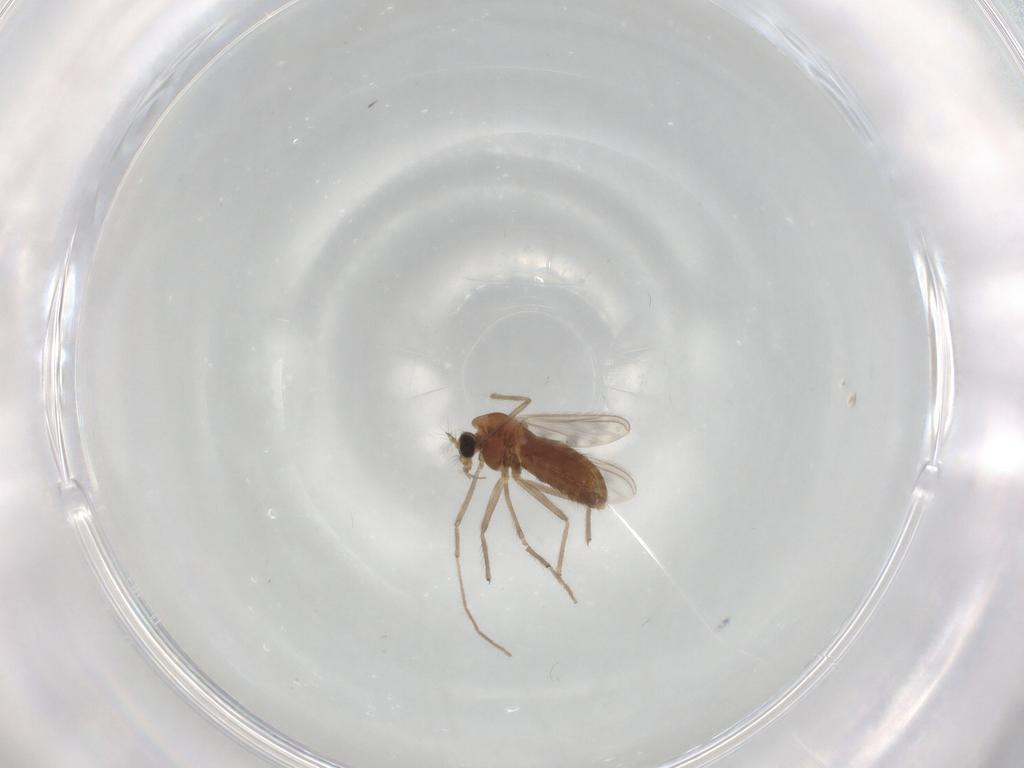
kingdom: Animalia
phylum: Arthropoda
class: Insecta
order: Diptera
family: Chironomidae
